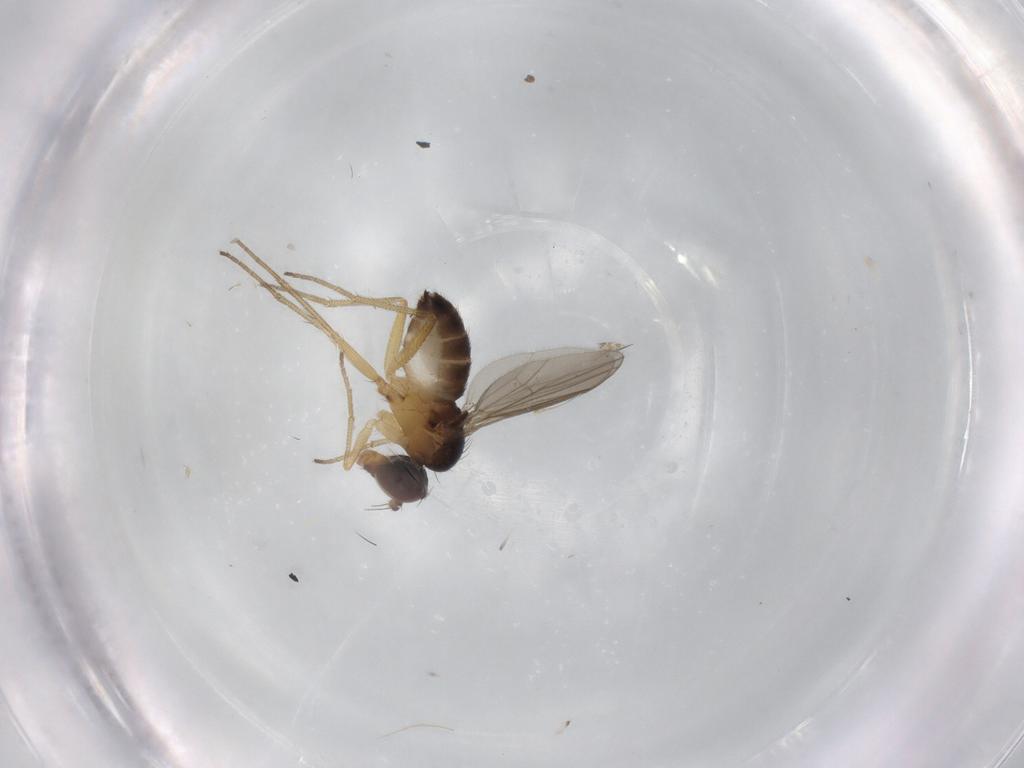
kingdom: Animalia
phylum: Arthropoda
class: Insecta
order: Diptera
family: Dolichopodidae
